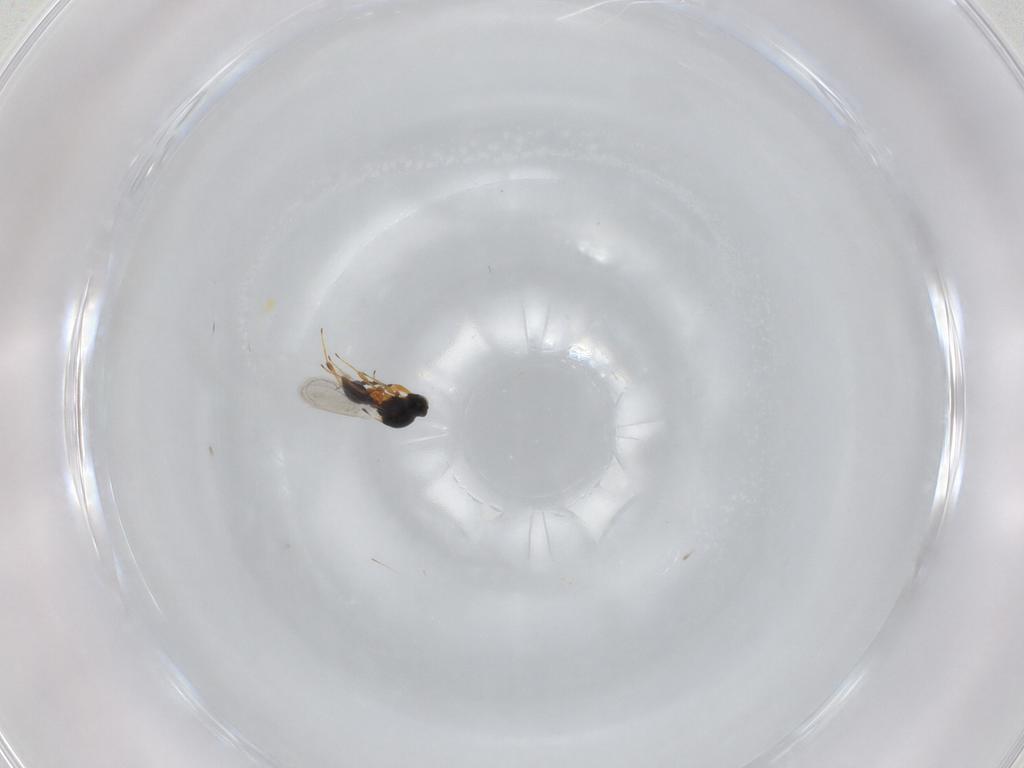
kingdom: Animalia
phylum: Arthropoda
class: Insecta
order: Hymenoptera
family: Platygastridae
